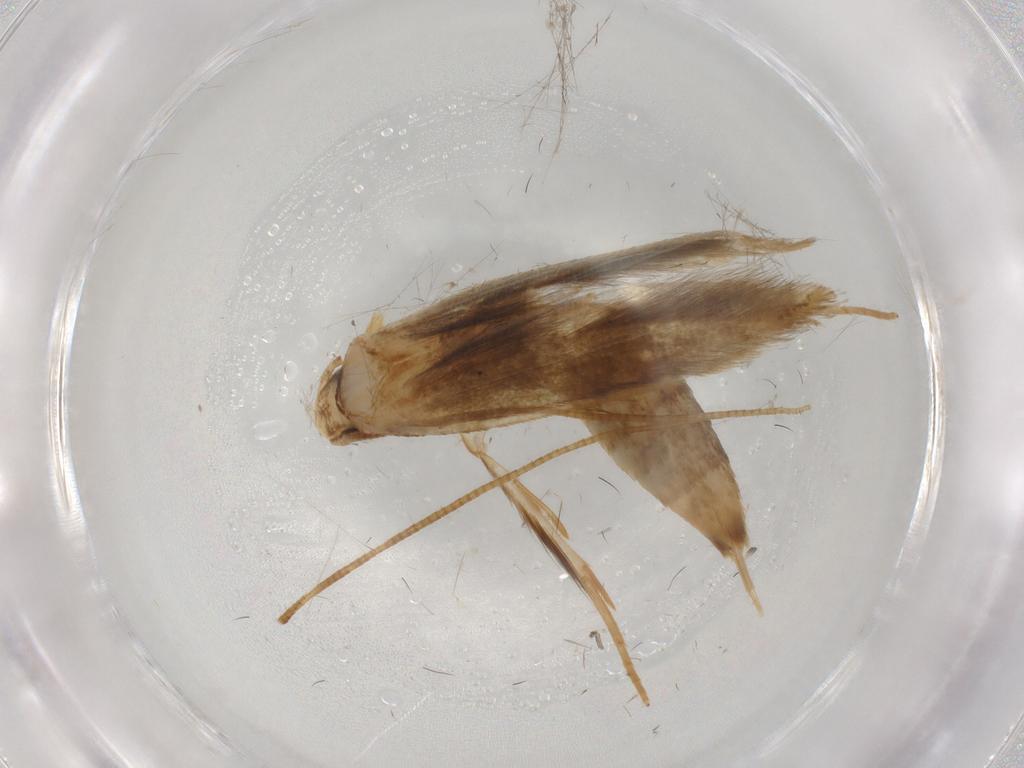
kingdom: Animalia
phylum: Arthropoda
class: Insecta
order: Lepidoptera
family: Tineidae
